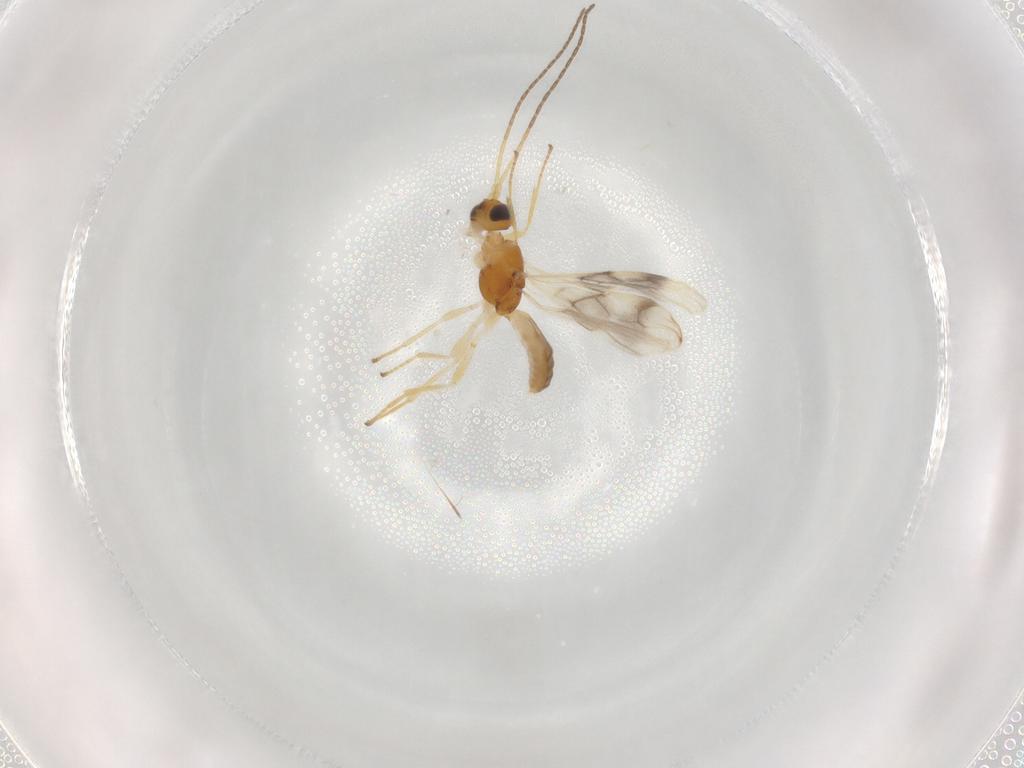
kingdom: Animalia
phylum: Arthropoda
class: Insecta
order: Hymenoptera
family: Braconidae
